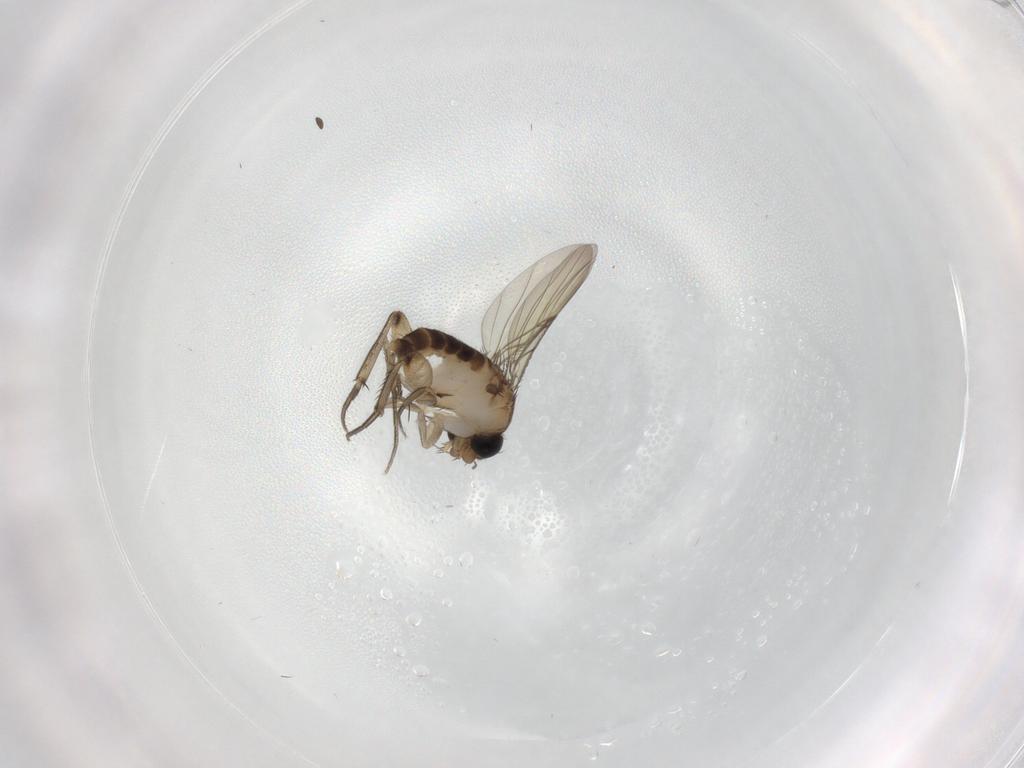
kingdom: Animalia
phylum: Arthropoda
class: Insecta
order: Diptera
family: Phoridae
